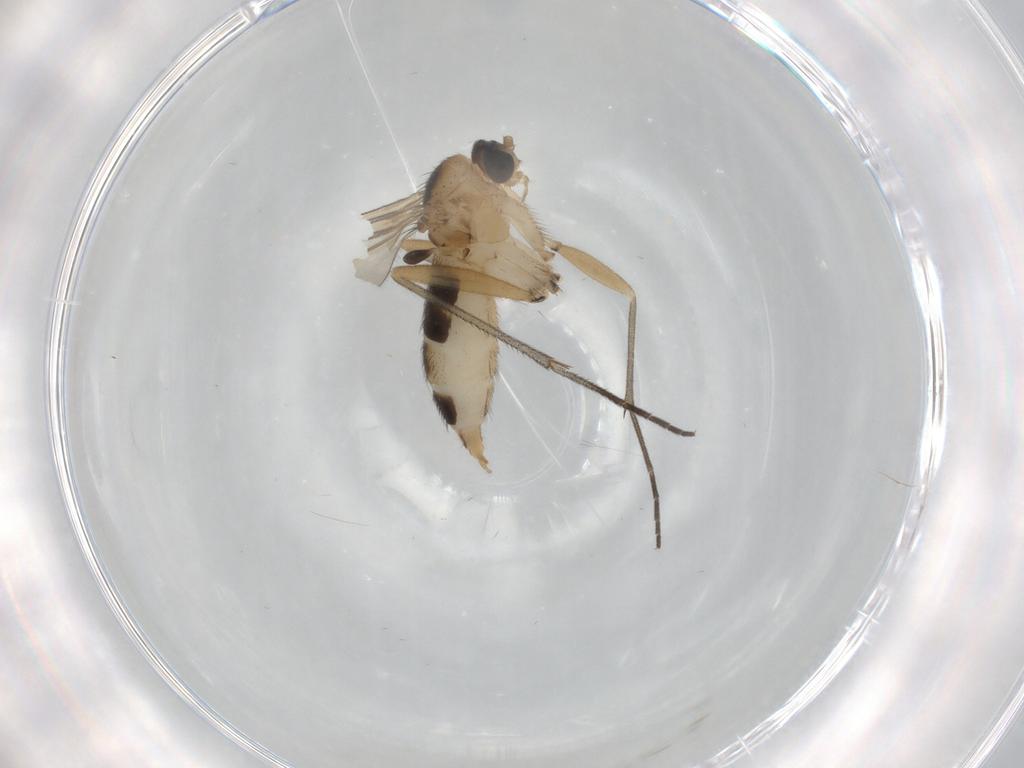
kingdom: Animalia
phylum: Arthropoda
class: Insecta
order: Diptera
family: Sciaridae
